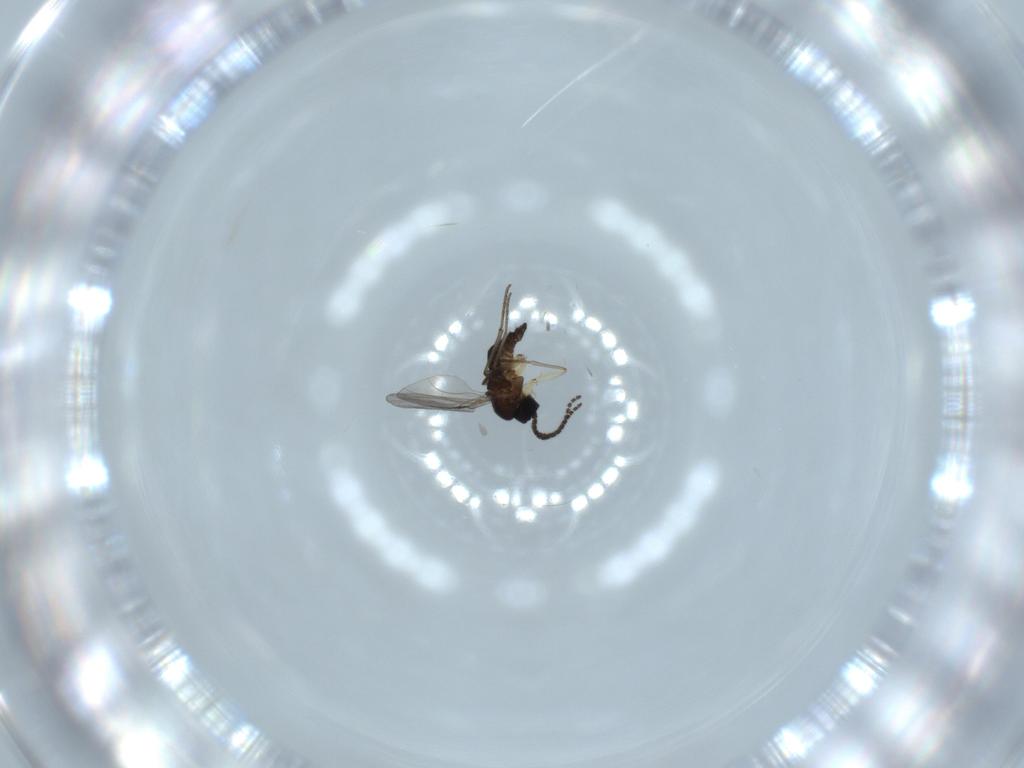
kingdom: Animalia
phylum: Arthropoda
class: Insecta
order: Diptera
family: Sciaridae
